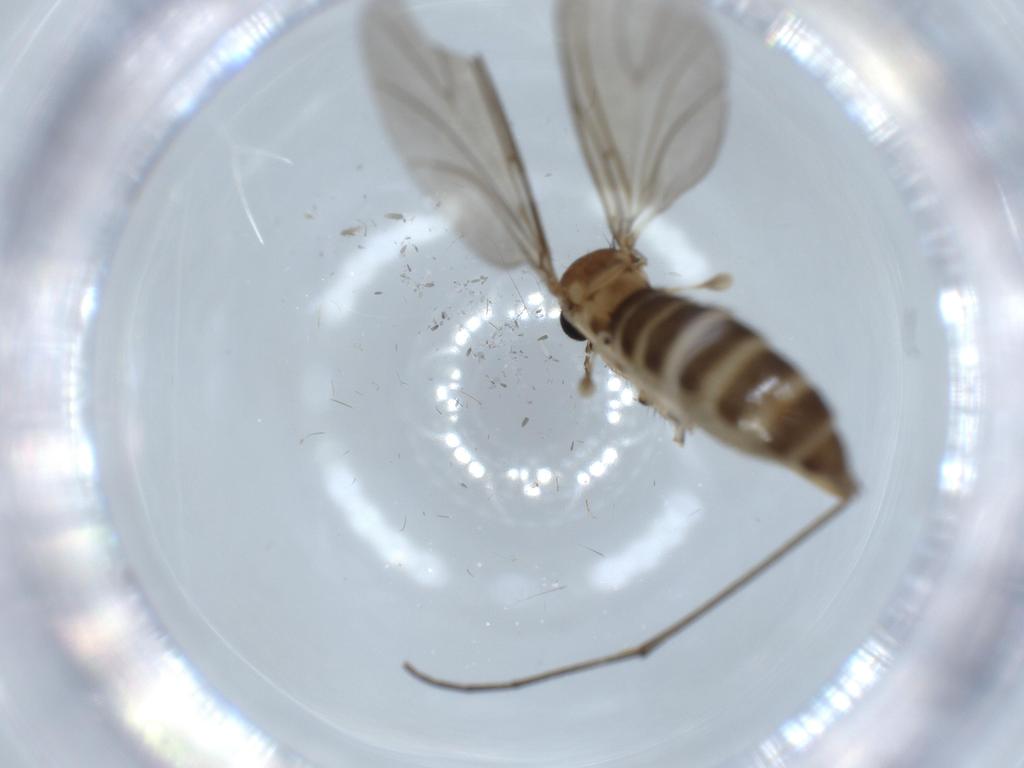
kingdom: Animalia
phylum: Arthropoda
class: Insecta
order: Diptera
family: Sciaridae
